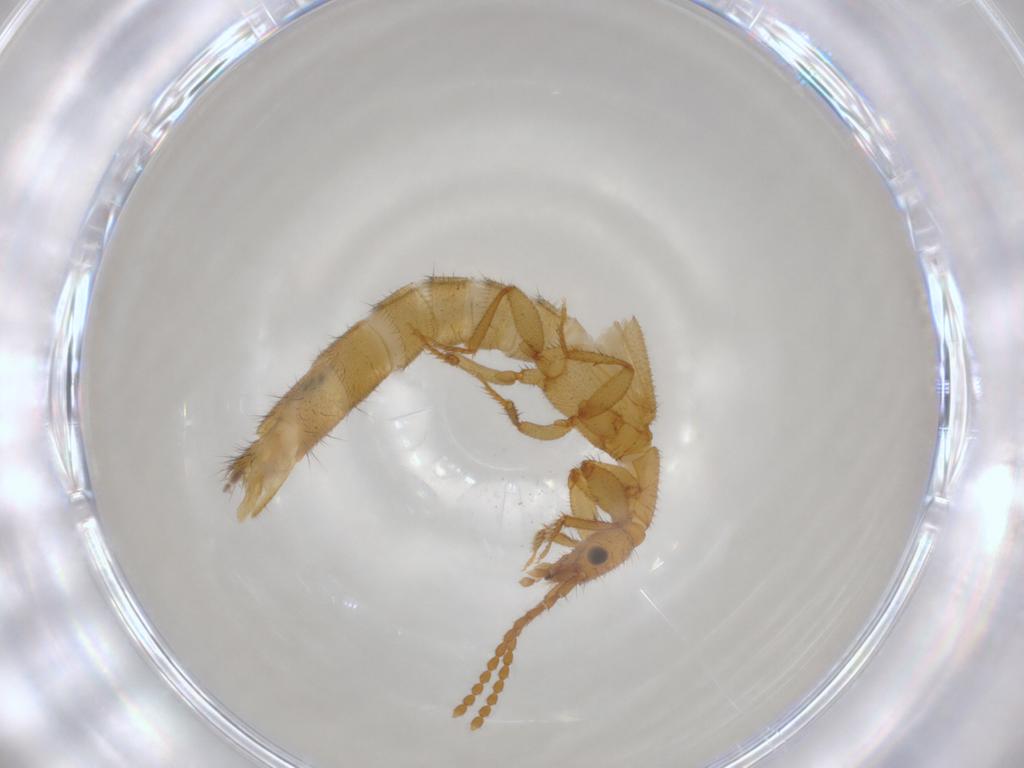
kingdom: Animalia
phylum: Arthropoda
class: Insecta
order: Coleoptera
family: Staphylinidae
